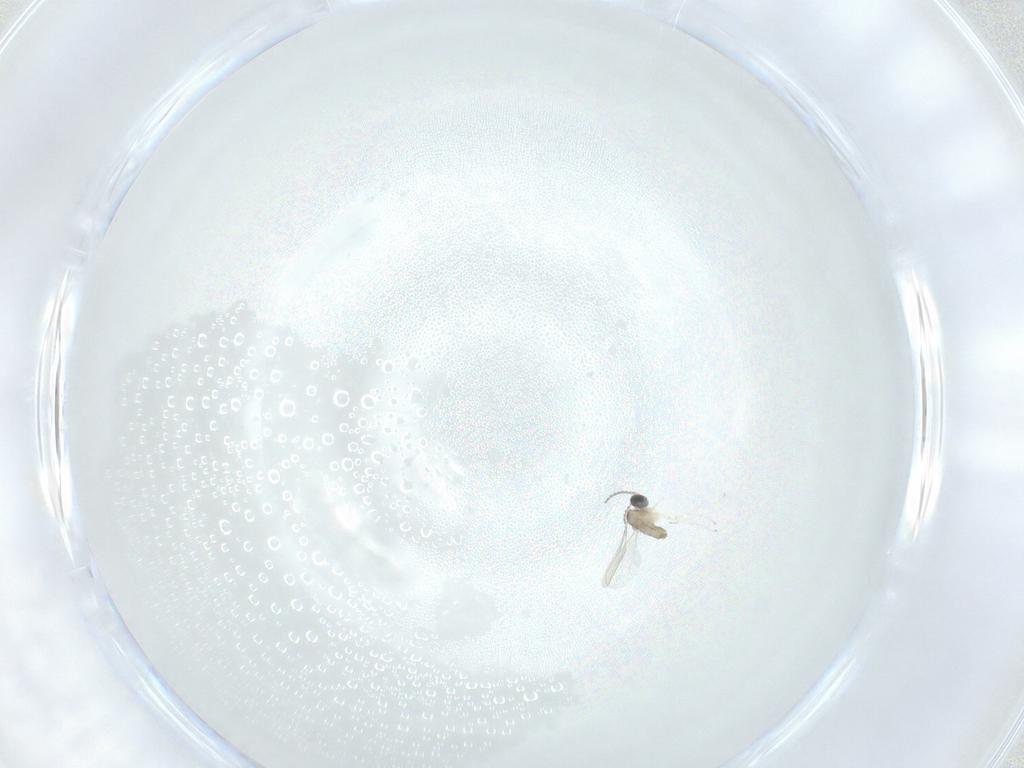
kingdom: Animalia
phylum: Arthropoda
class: Insecta
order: Diptera
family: Cecidomyiidae
